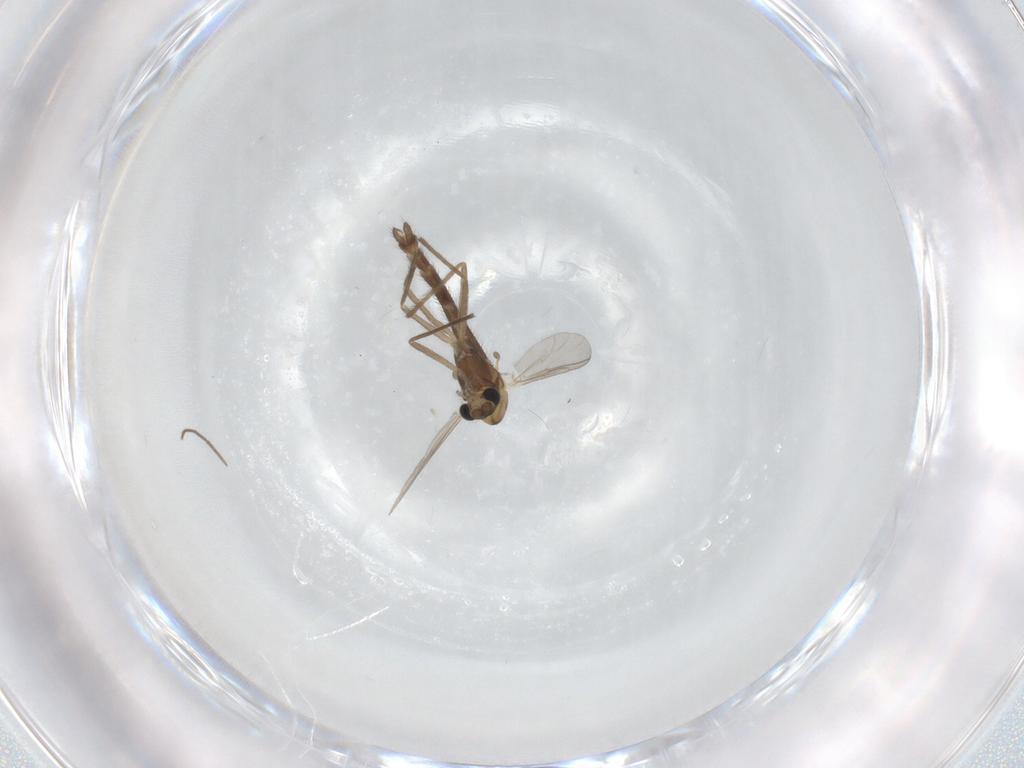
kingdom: Animalia
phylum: Arthropoda
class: Insecta
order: Diptera
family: Chironomidae
